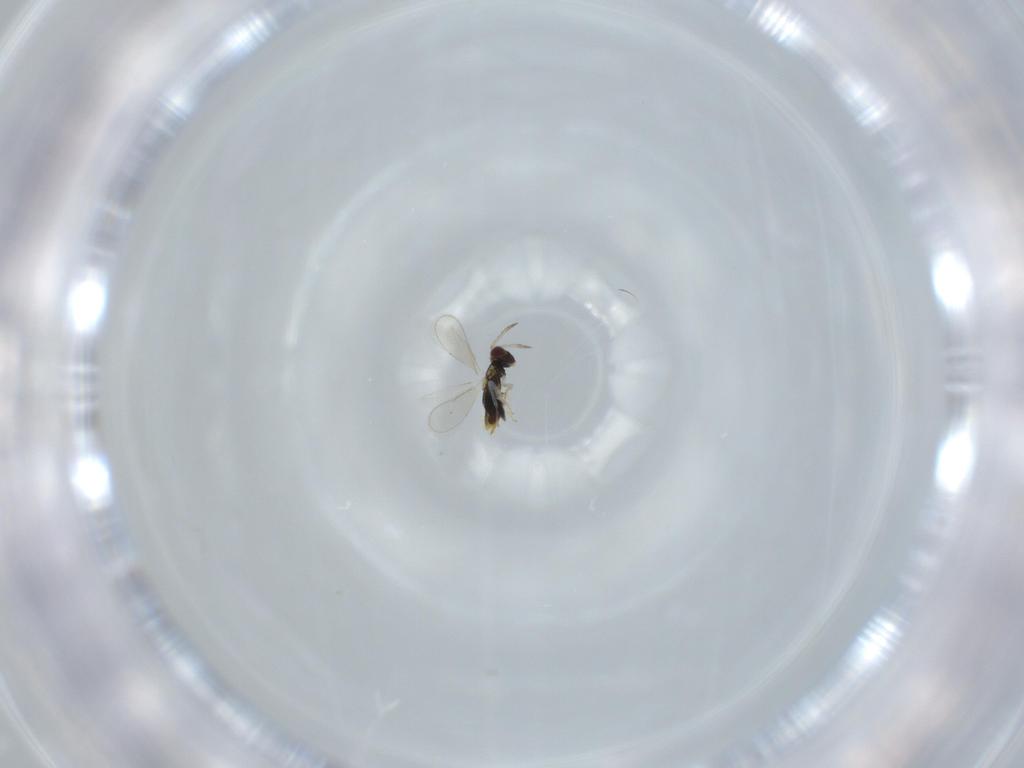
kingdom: Animalia
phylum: Arthropoda
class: Insecta
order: Hymenoptera
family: Aphelinidae
